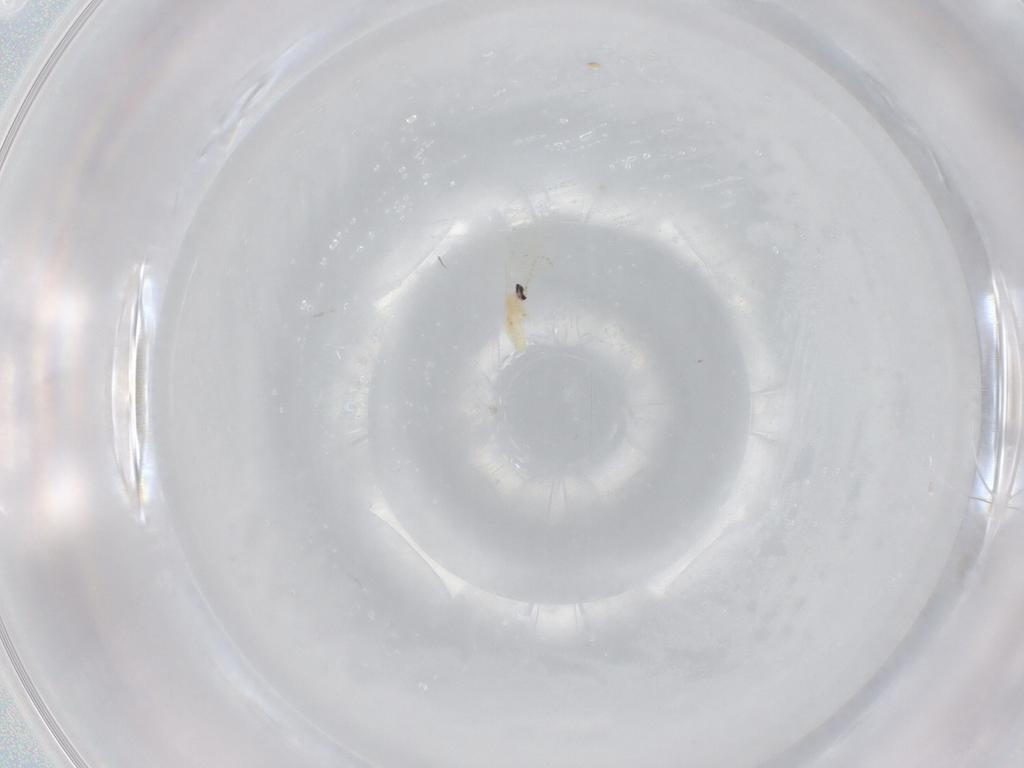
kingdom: Animalia
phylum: Arthropoda
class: Insecta
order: Diptera
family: Cecidomyiidae
